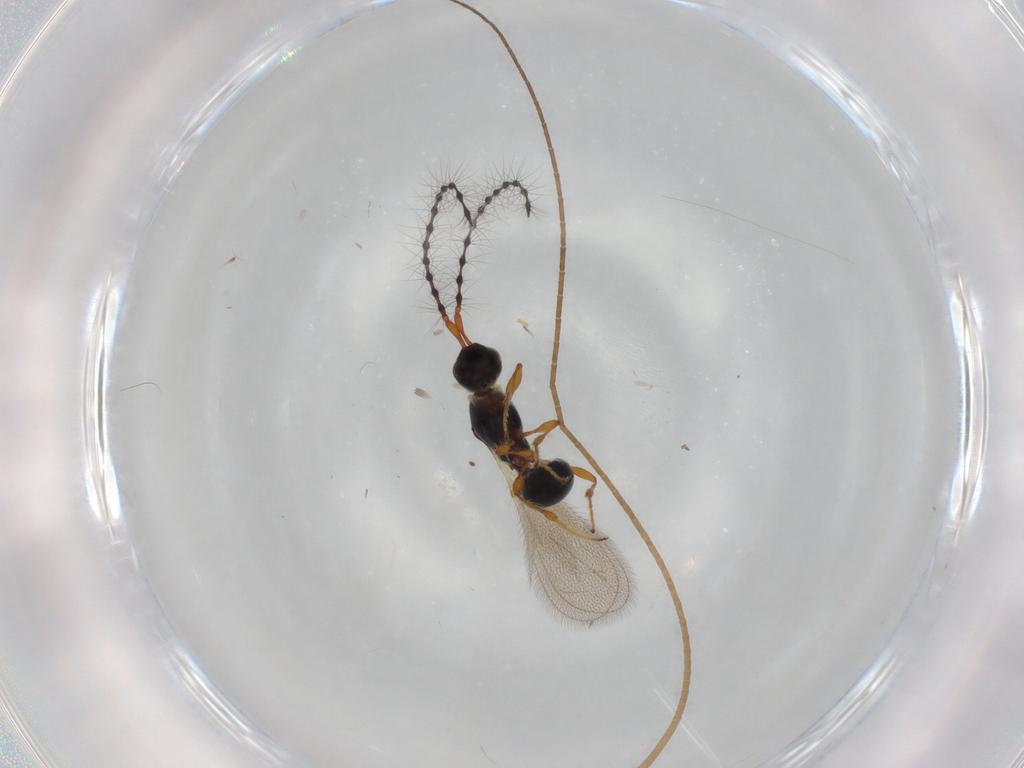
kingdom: Animalia
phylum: Arthropoda
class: Insecta
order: Hymenoptera
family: Diapriidae
